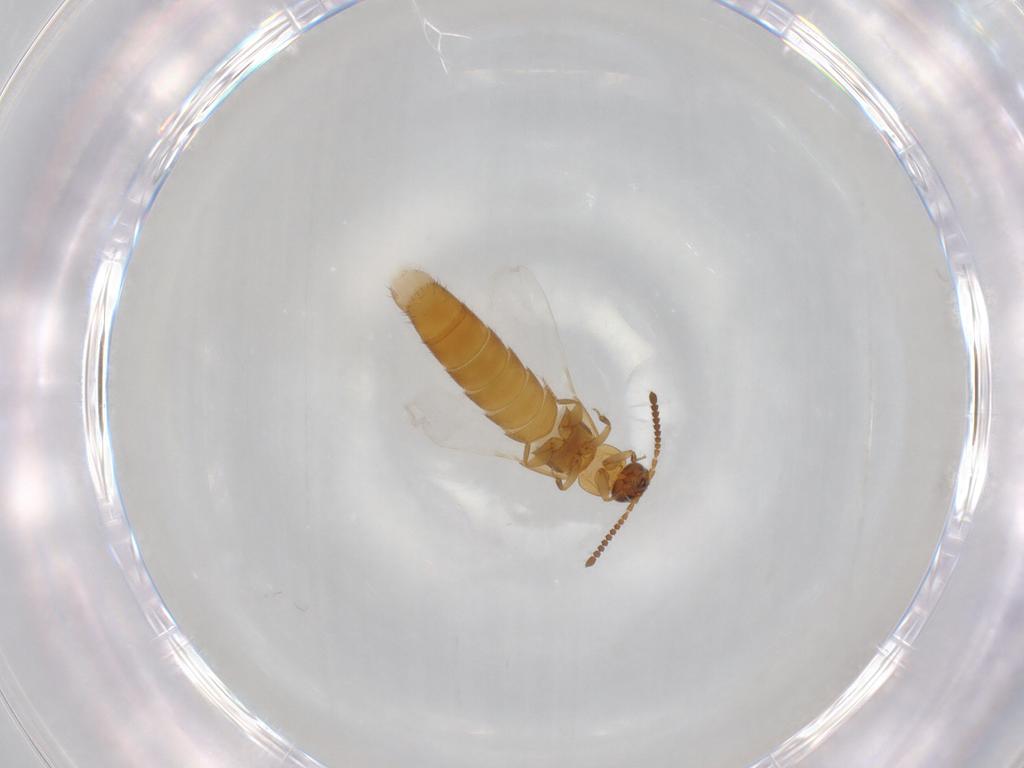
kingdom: Animalia
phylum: Arthropoda
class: Insecta
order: Coleoptera
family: Staphylinidae
